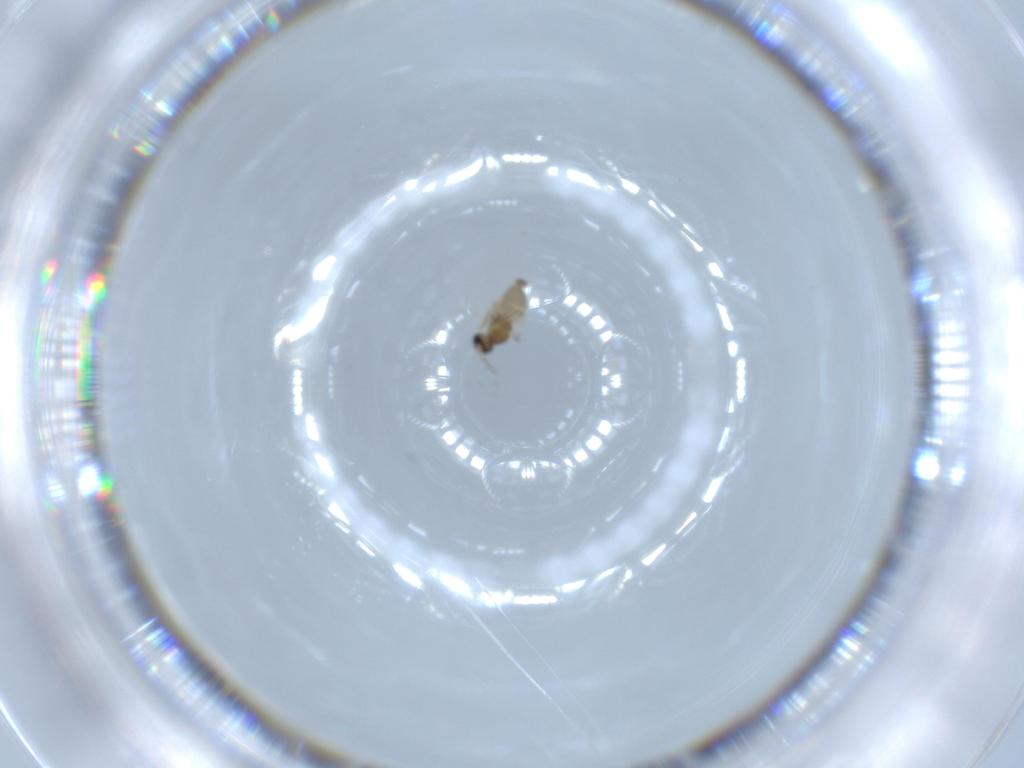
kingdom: Animalia
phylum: Arthropoda
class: Insecta
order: Diptera
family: Cecidomyiidae
